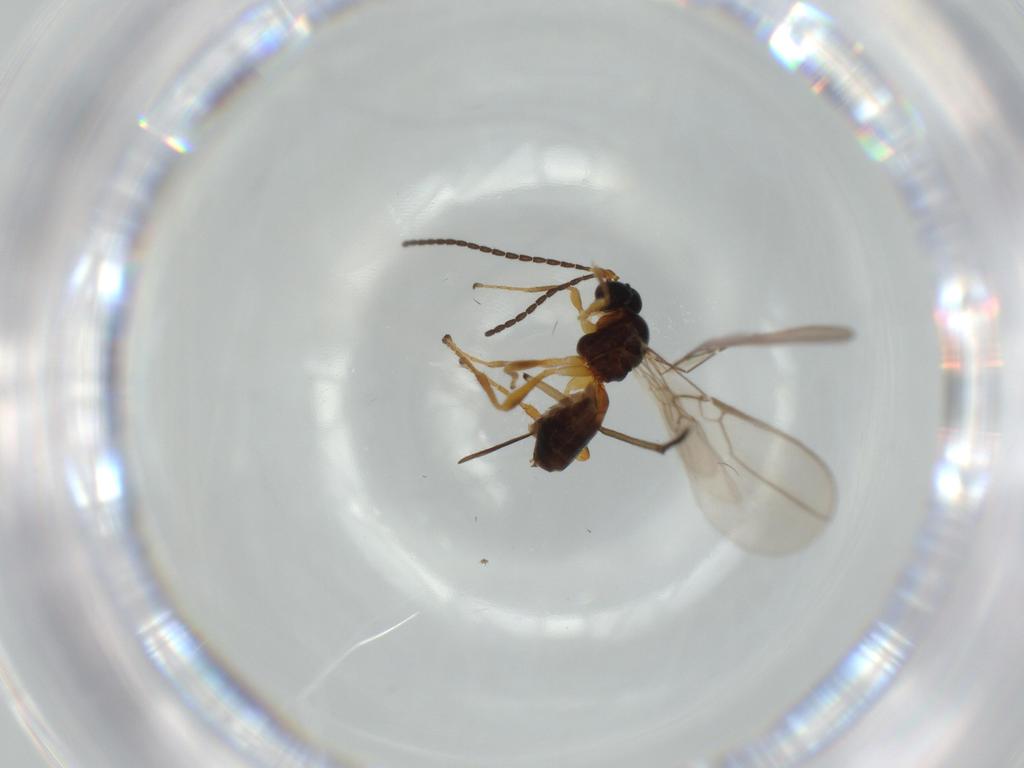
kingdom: Animalia
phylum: Arthropoda
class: Insecta
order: Hymenoptera
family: Braconidae
